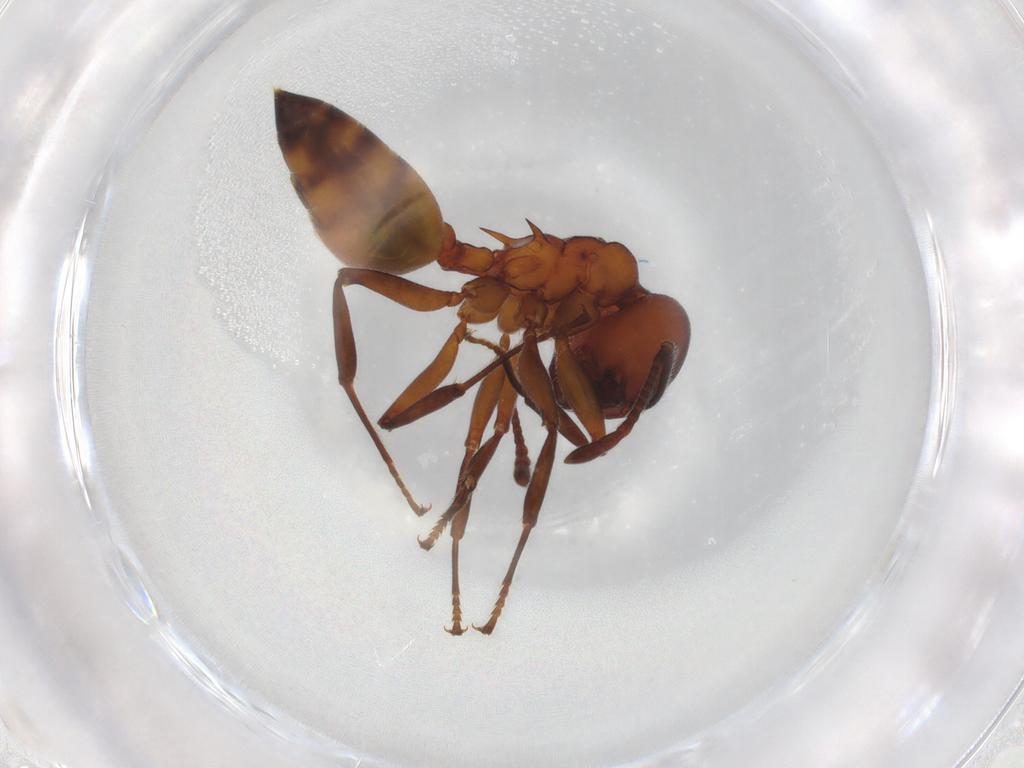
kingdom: Animalia
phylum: Arthropoda
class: Insecta
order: Hymenoptera
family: Formicidae
